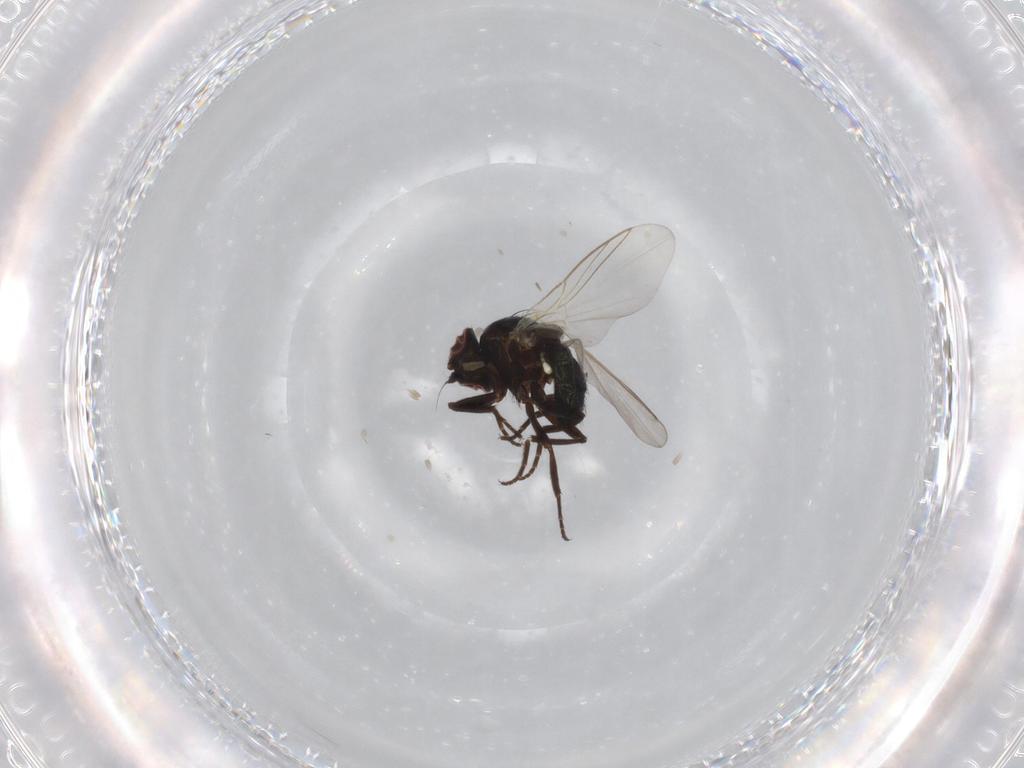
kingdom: Animalia
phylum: Arthropoda
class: Insecta
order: Diptera
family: Dolichopodidae
